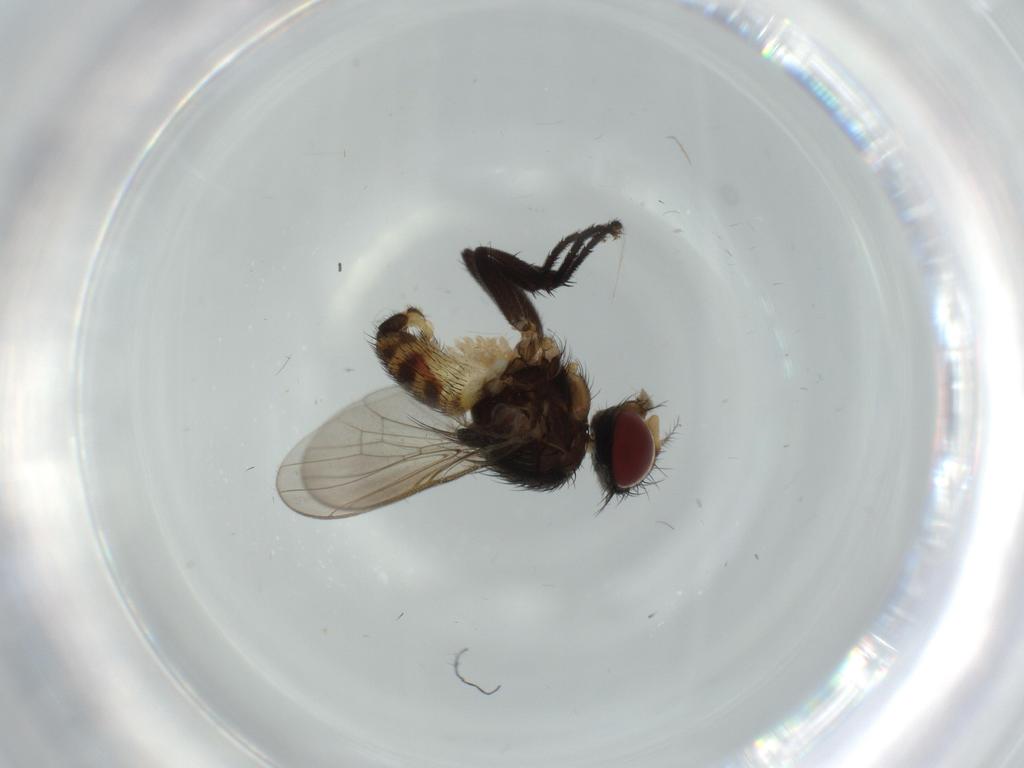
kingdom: Animalia
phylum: Arthropoda
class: Insecta
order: Diptera
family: Anthomyiidae
